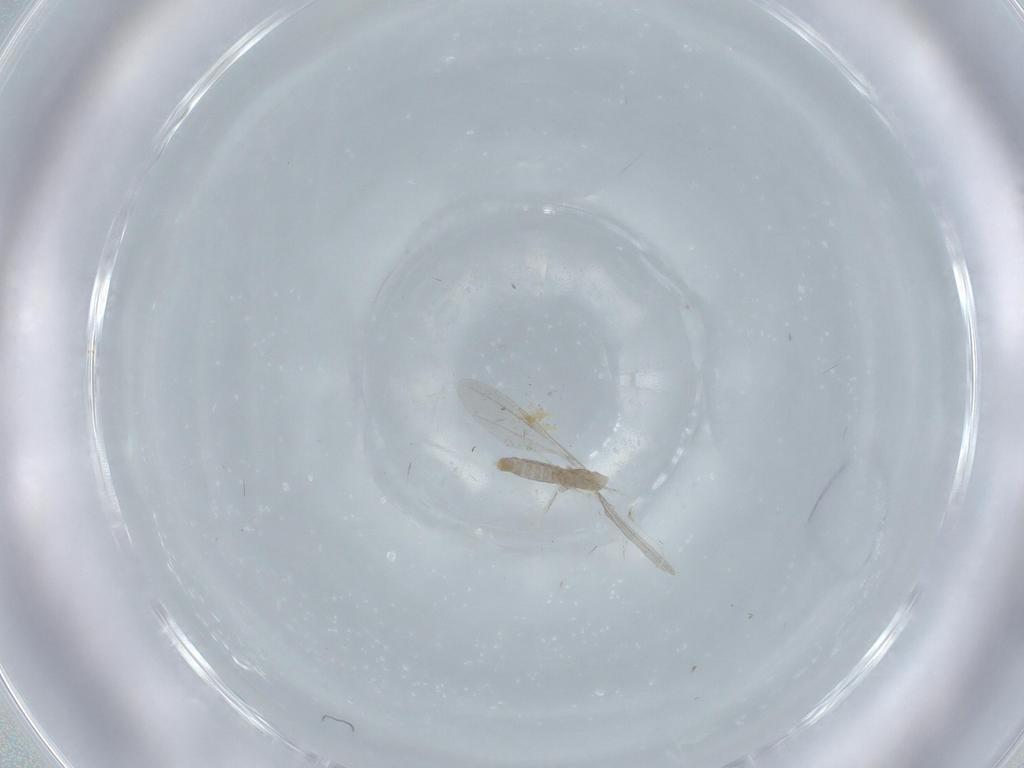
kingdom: Animalia
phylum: Arthropoda
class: Insecta
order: Diptera
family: Cecidomyiidae
